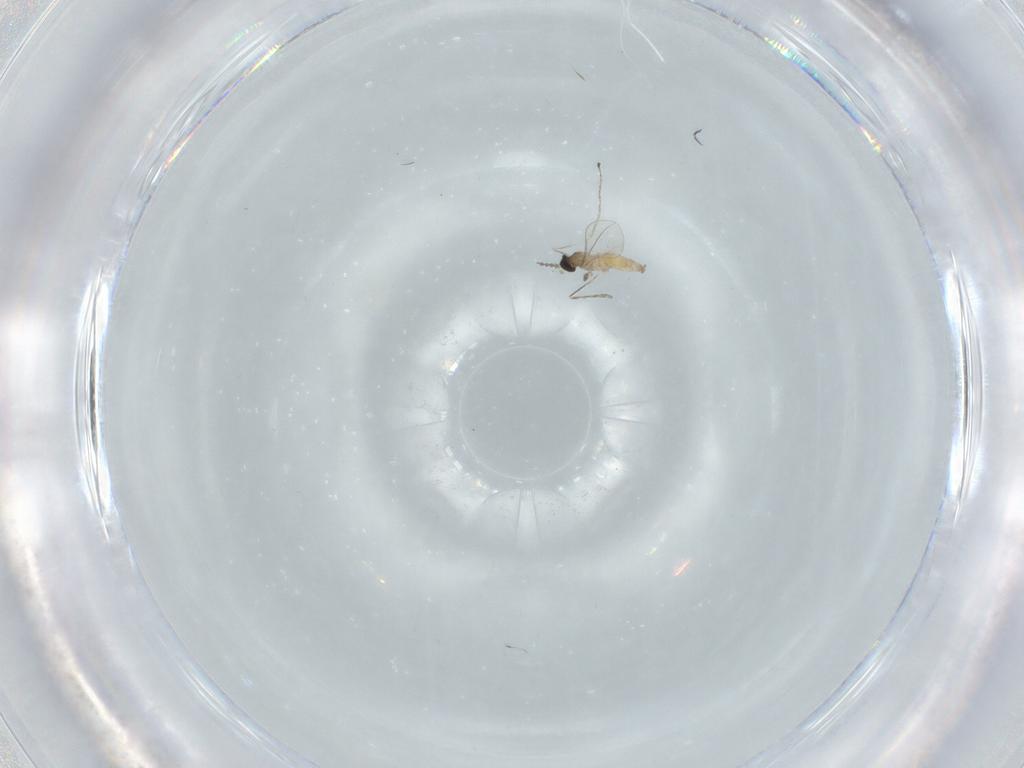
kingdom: Animalia
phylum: Arthropoda
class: Insecta
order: Diptera
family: Cecidomyiidae
